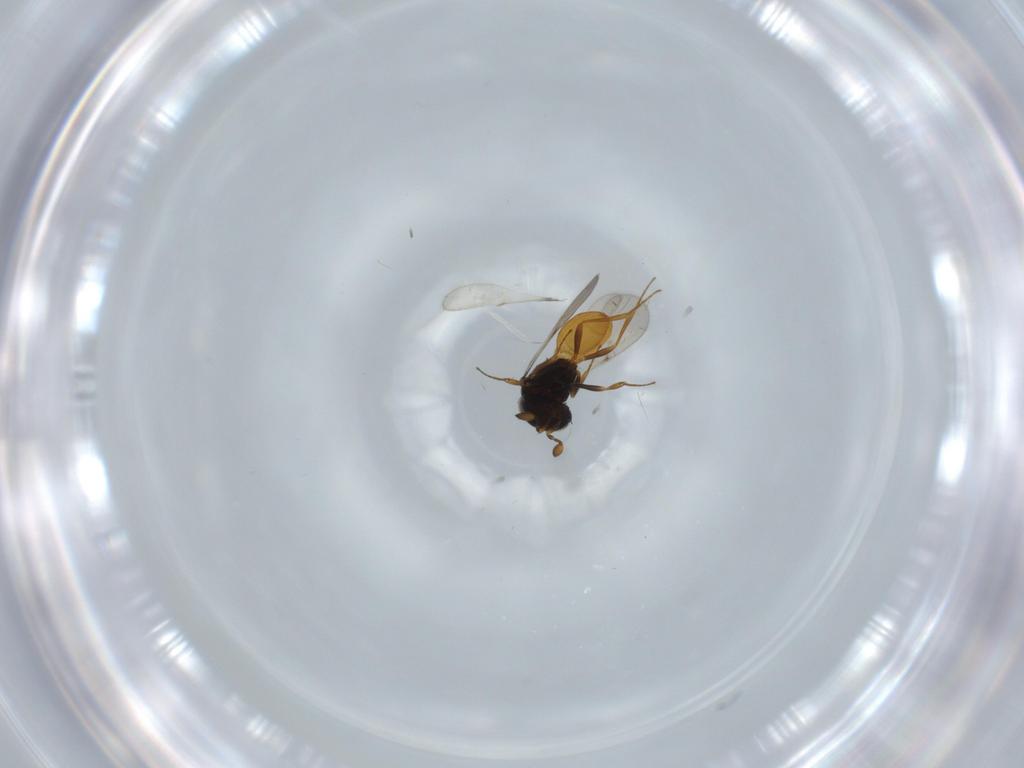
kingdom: Animalia
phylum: Arthropoda
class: Insecta
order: Hymenoptera
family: Scelionidae
